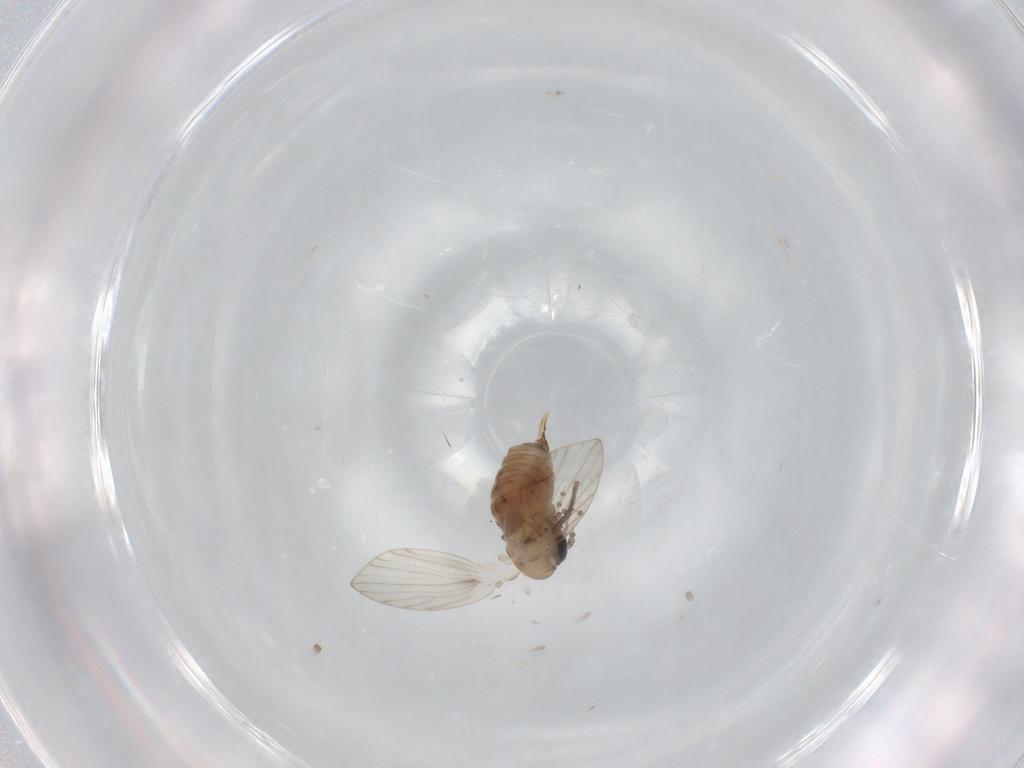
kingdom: Animalia
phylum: Arthropoda
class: Insecta
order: Diptera
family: Psychodidae
